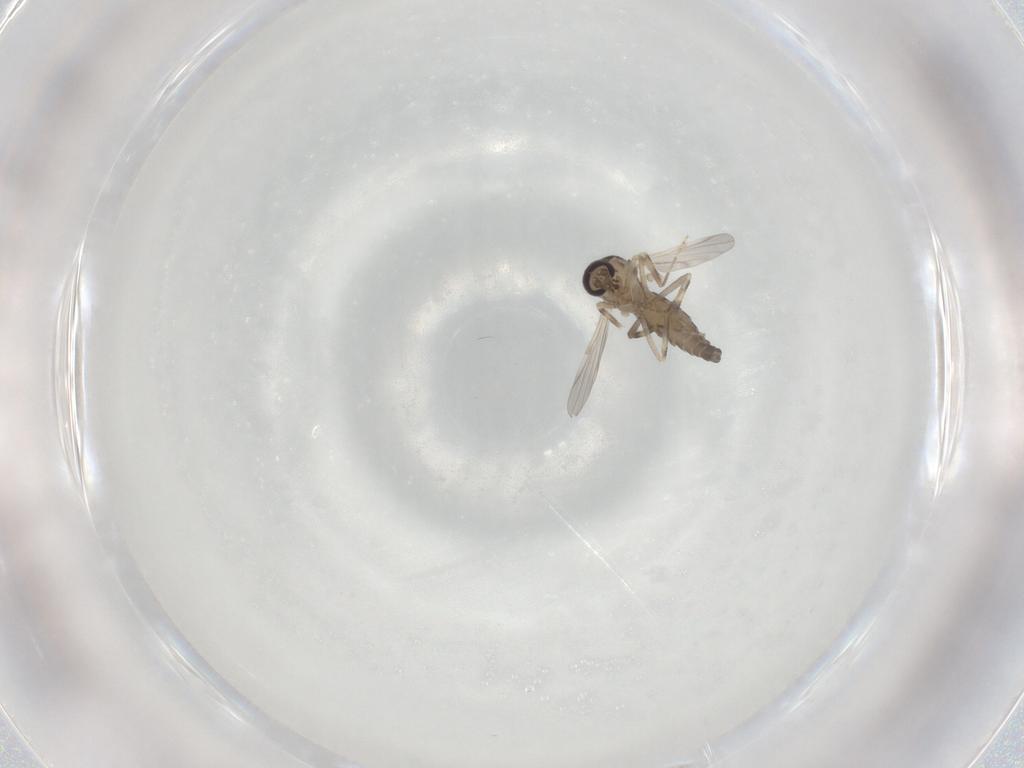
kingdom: Animalia
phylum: Arthropoda
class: Insecta
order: Diptera
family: Ceratopogonidae
